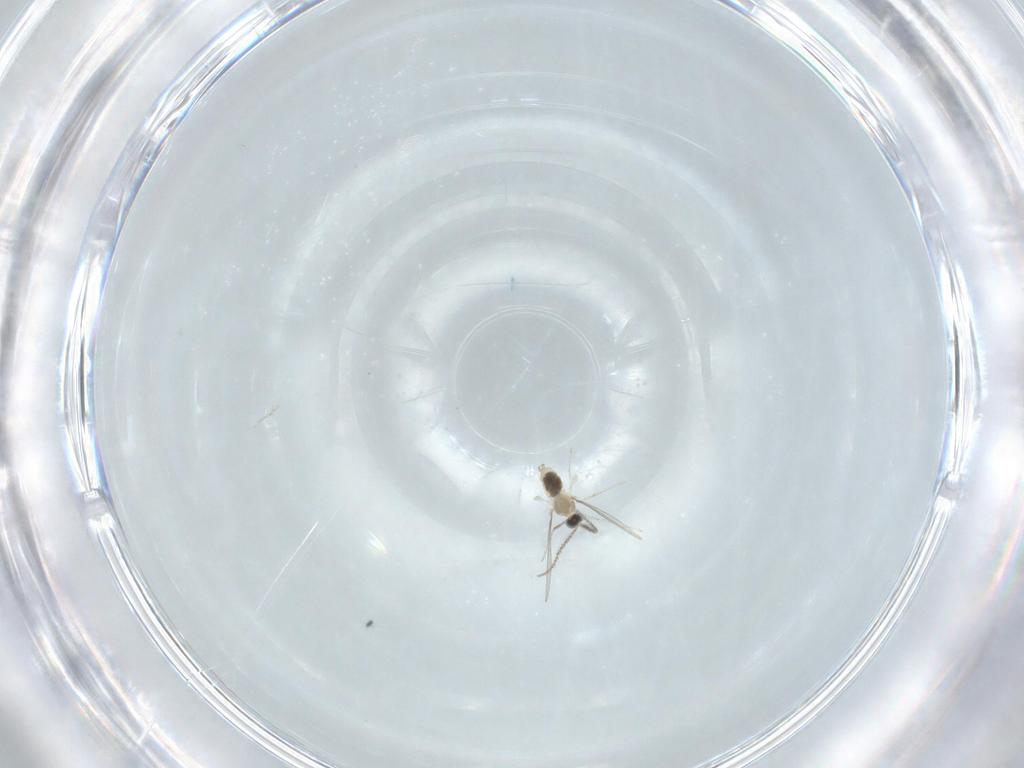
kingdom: Animalia
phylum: Arthropoda
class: Insecta
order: Diptera
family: Cecidomyiidae
